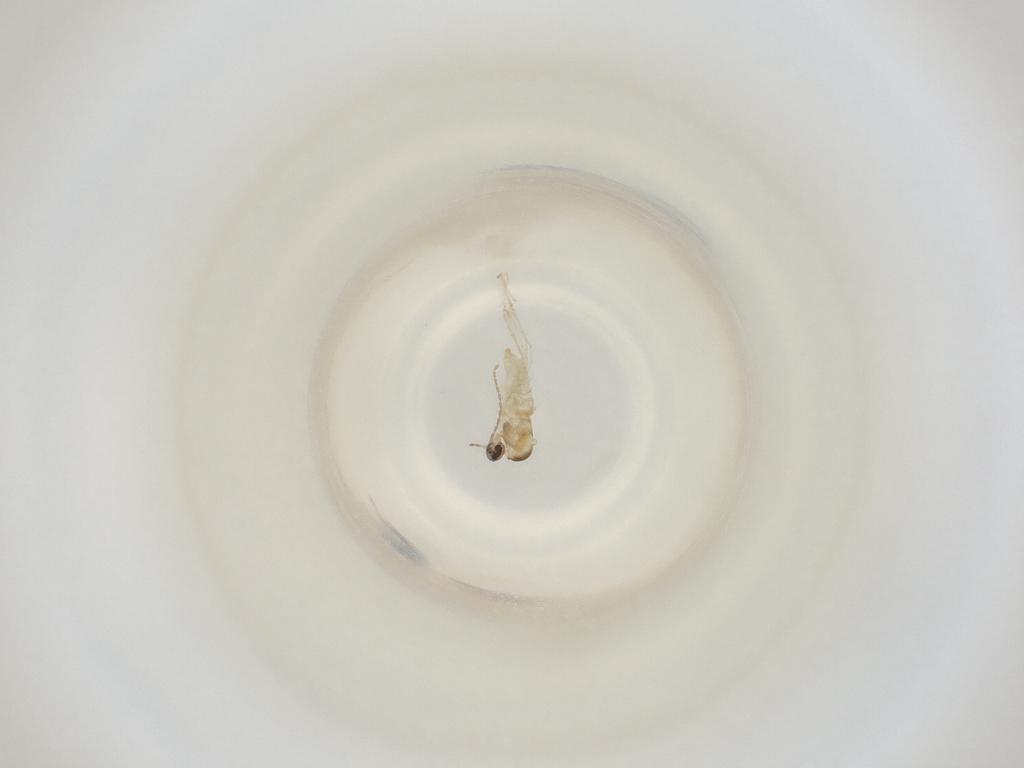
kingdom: Animalia
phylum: Arthropoda
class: Insecta
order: Diptera
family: Cecidomyiidae
